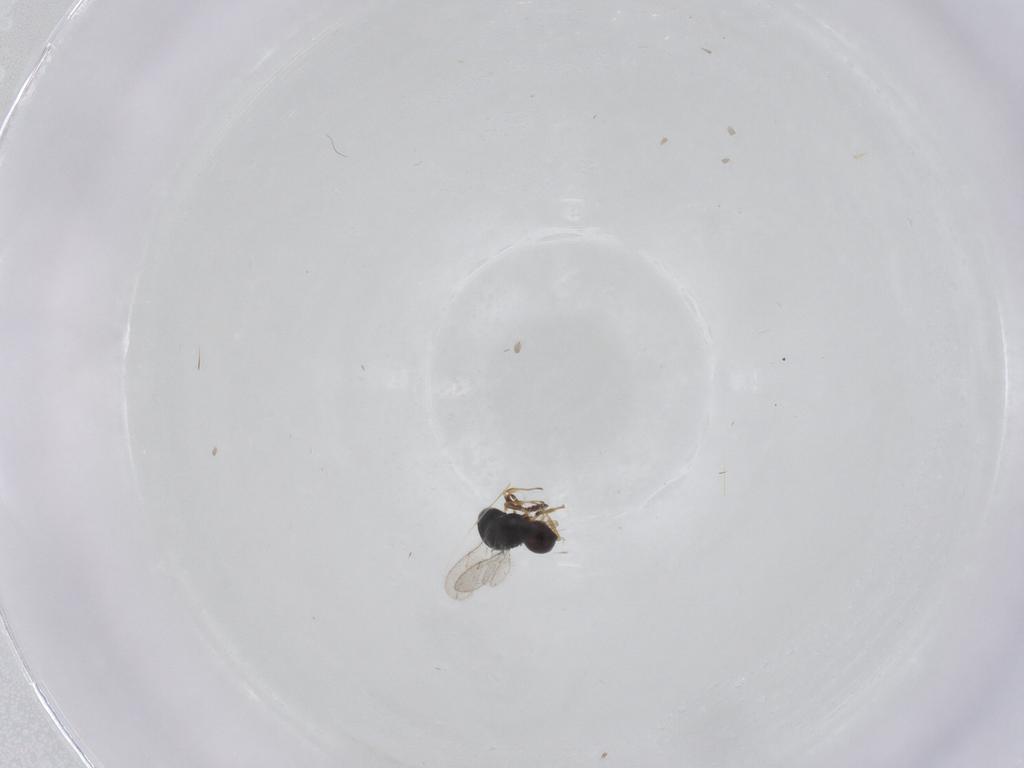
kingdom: Animalia
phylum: Arthropoda
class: Insecta
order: Hymenoptera
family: Scelionidae
